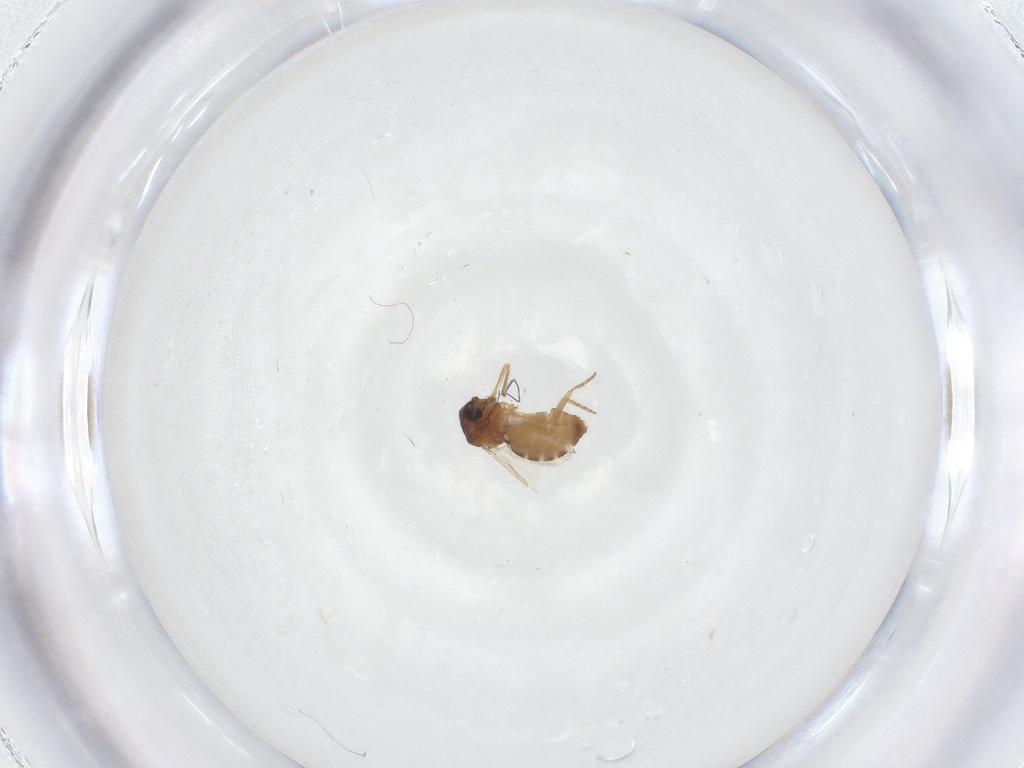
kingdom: Animalia
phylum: Arthropoda
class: Insecta
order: Diptera
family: Ceratopogonidae
